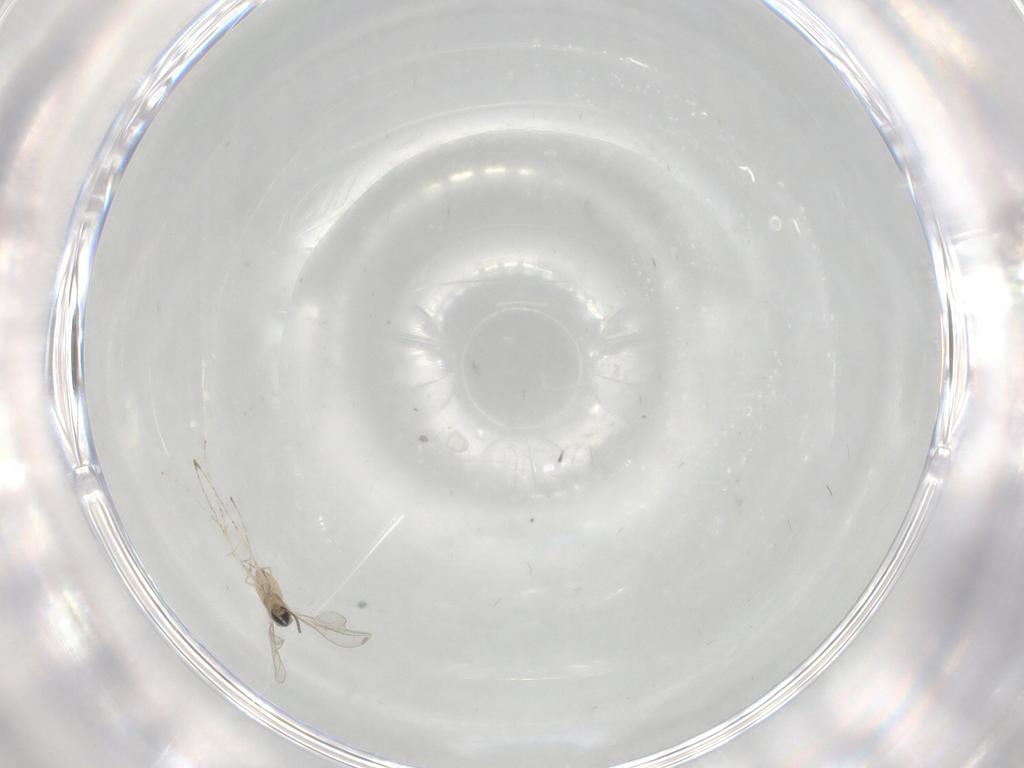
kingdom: Animalia
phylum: Arthropoda
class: Insecta
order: Diptera
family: Cecidomyiidae
